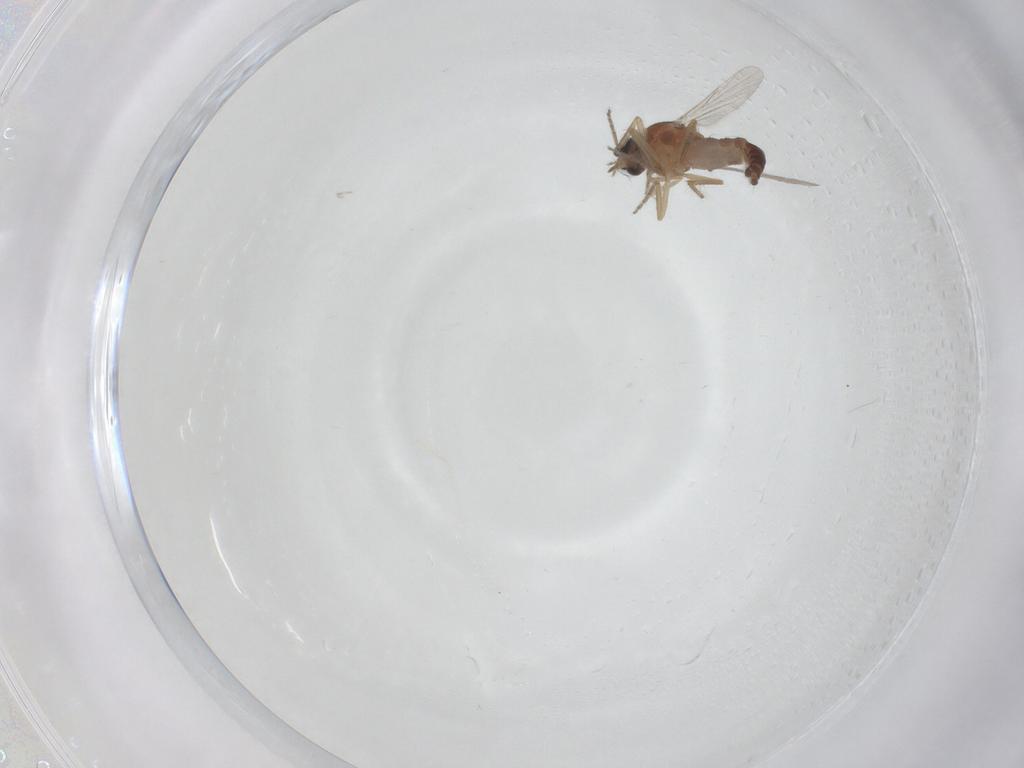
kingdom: Animalia
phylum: Arthropoda
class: Insecta
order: Diptera
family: Ceratopogonidae
